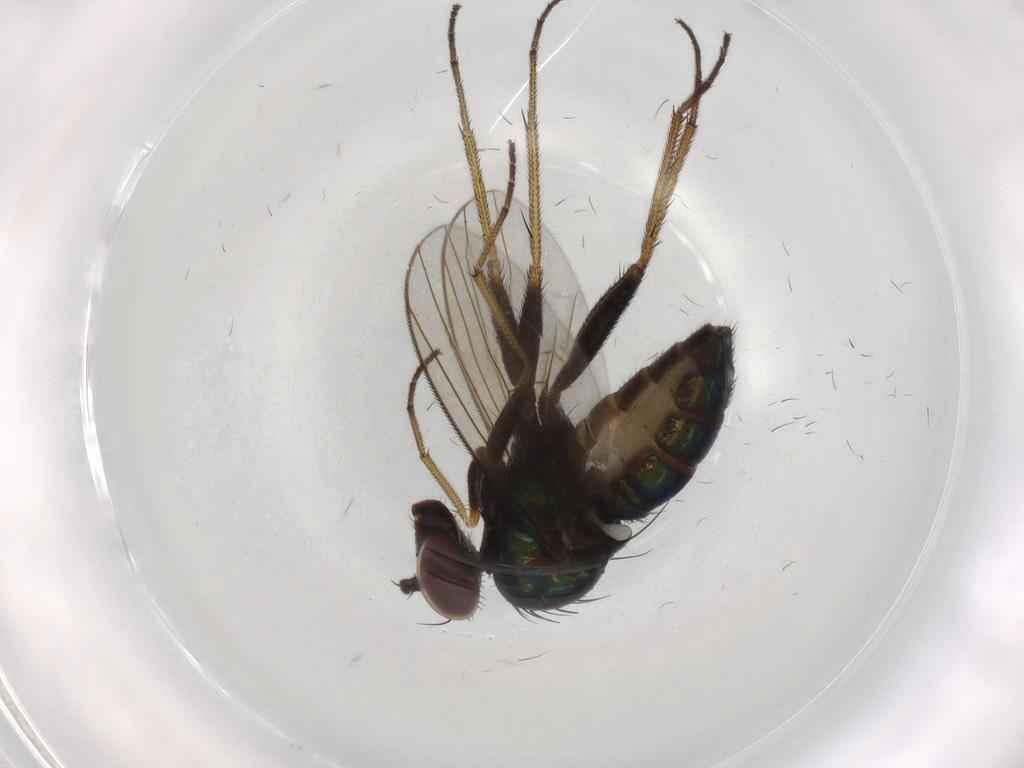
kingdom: Animalia
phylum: Arthropoda
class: Insecta
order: Diptera
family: Dolichopodidae
